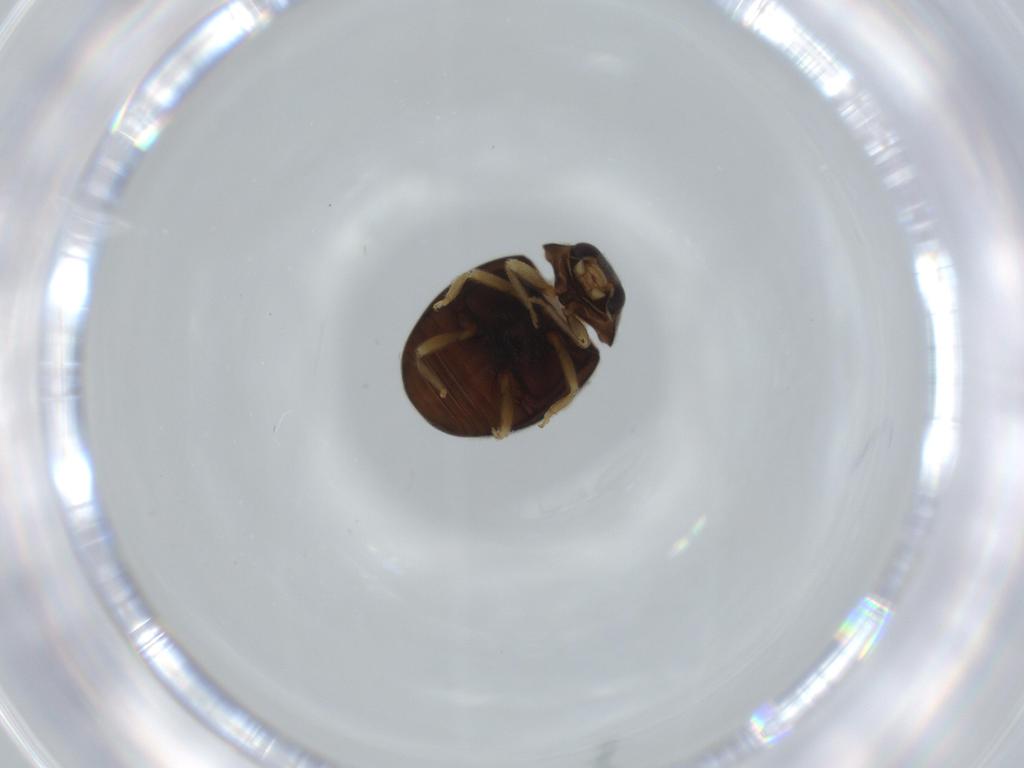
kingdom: Animalia
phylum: Arthropoda
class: Insecta
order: Coleoptera
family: Coccinellidae
